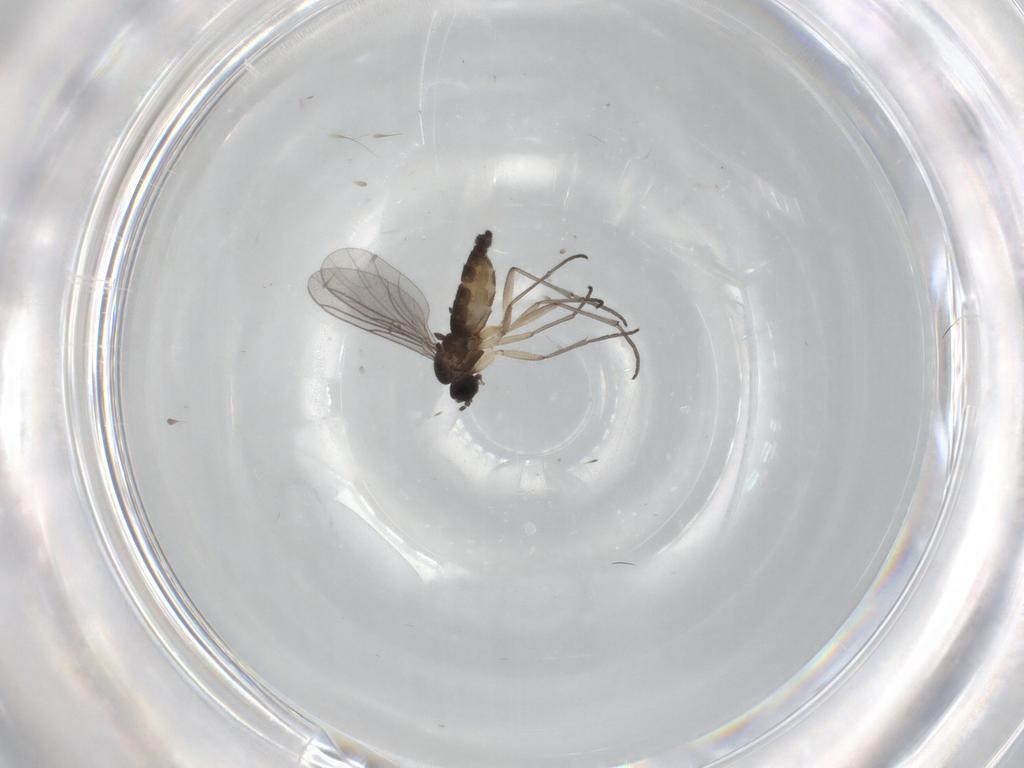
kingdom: Animalia
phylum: Arthropoda
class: Insecta
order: Diptera
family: Sciaridae
